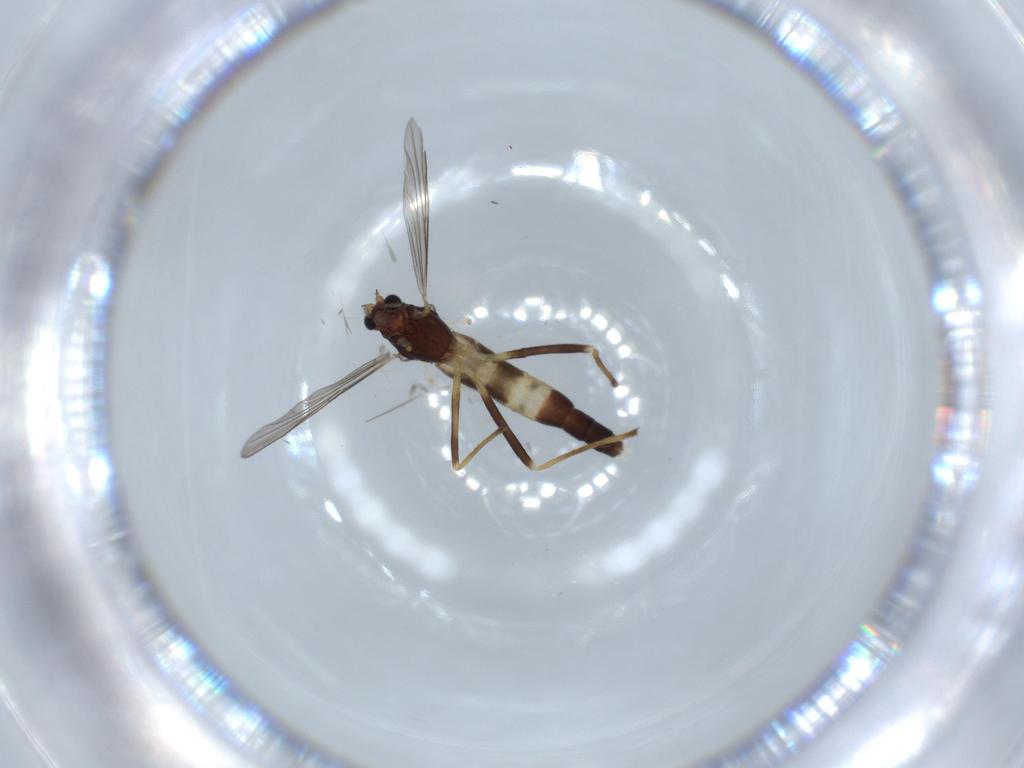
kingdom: Animalia
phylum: Arthropoda
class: Insecta
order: Diptera
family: Chironomidae
